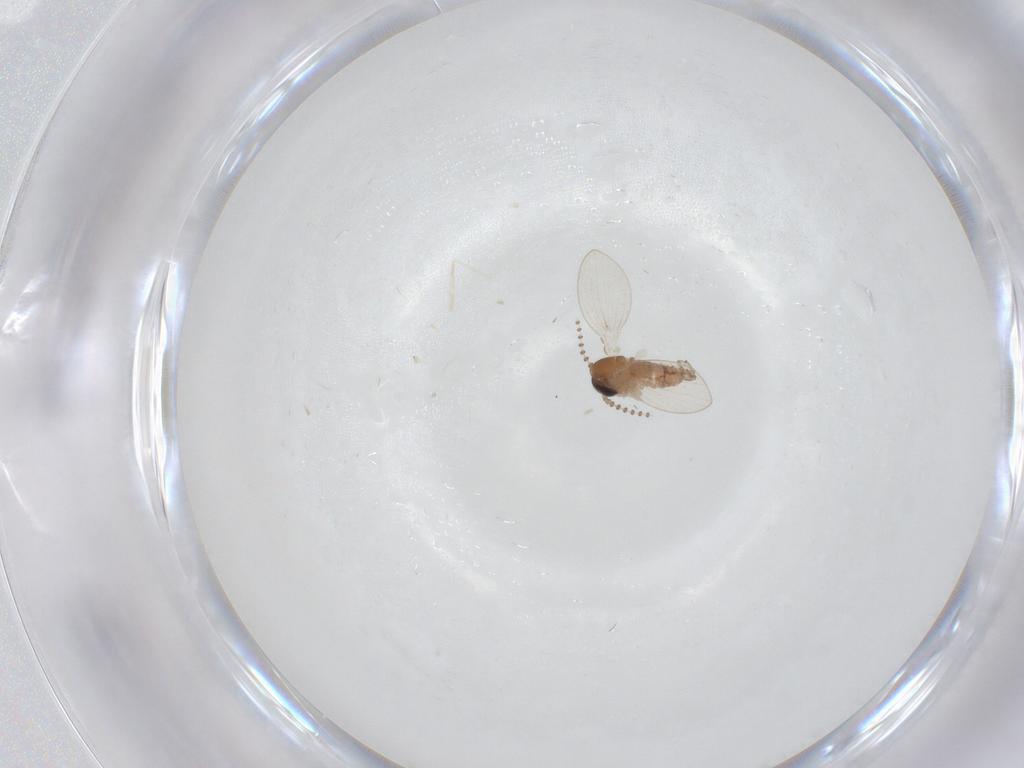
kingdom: Animalia
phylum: Arthropoda
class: Insecta
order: Diptera
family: Psychodidae
